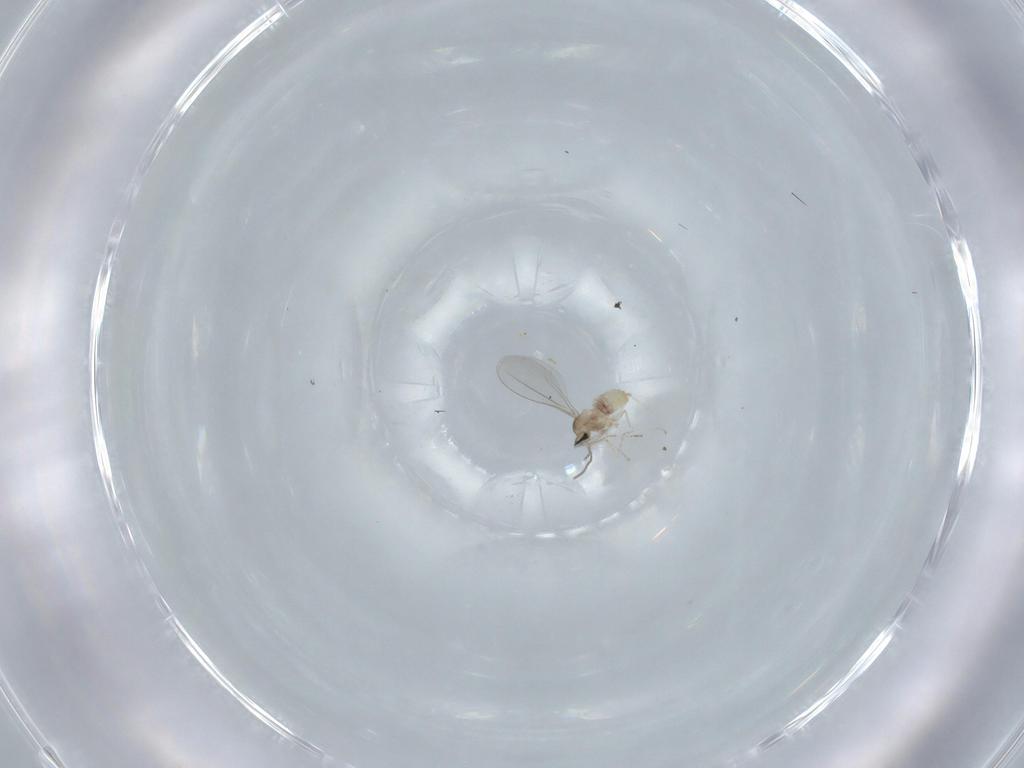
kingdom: Animalia
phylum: Arthropoda
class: Insecta
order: Diptera
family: Cecidomyiidae
